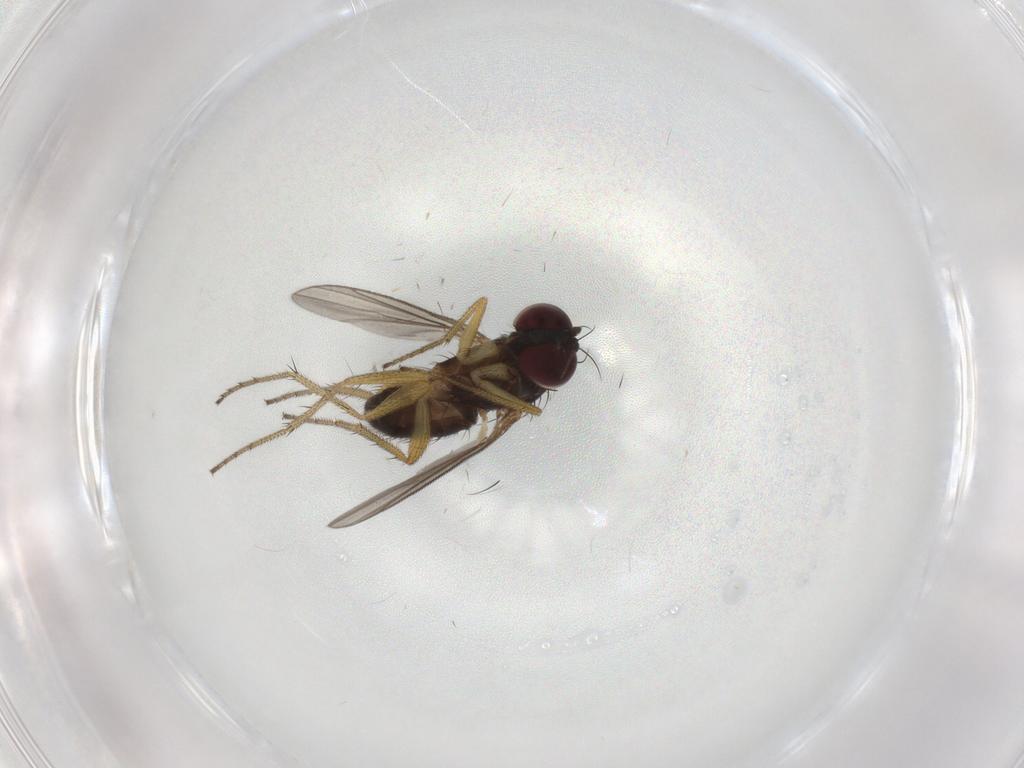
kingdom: Animalia
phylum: Arthropoda
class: Insecta
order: Diptera
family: Dolichopodidae
